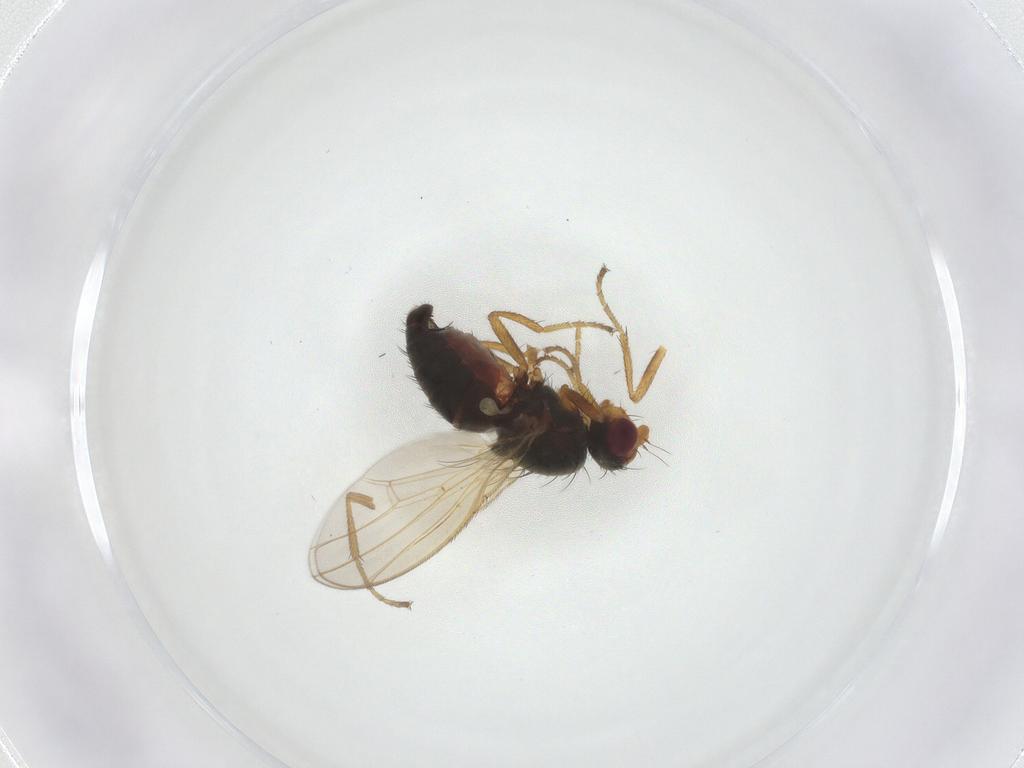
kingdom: Animalia
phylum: Arthropoda
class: Insecta
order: Diptera
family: Heleomyzidae
